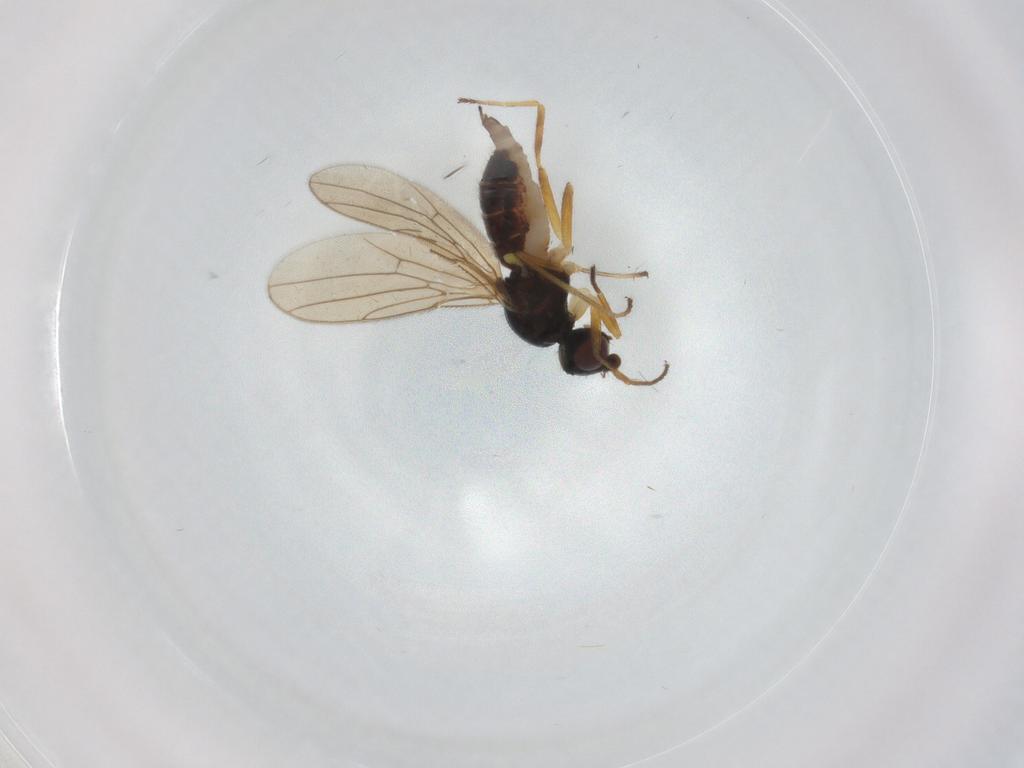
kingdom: Animalia
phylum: Arthropoda
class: Insecta
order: Diptera
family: Chloropidae
